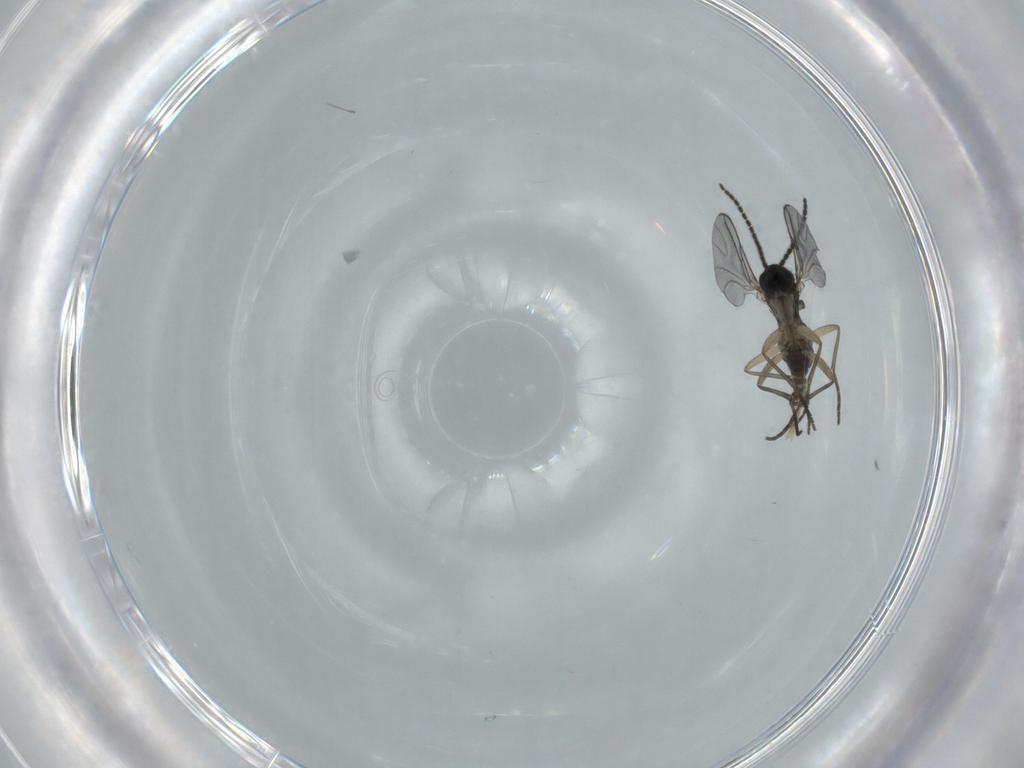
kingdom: Animalia
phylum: Arthropoda
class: Insecta
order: Diptera
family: Sciaridae
